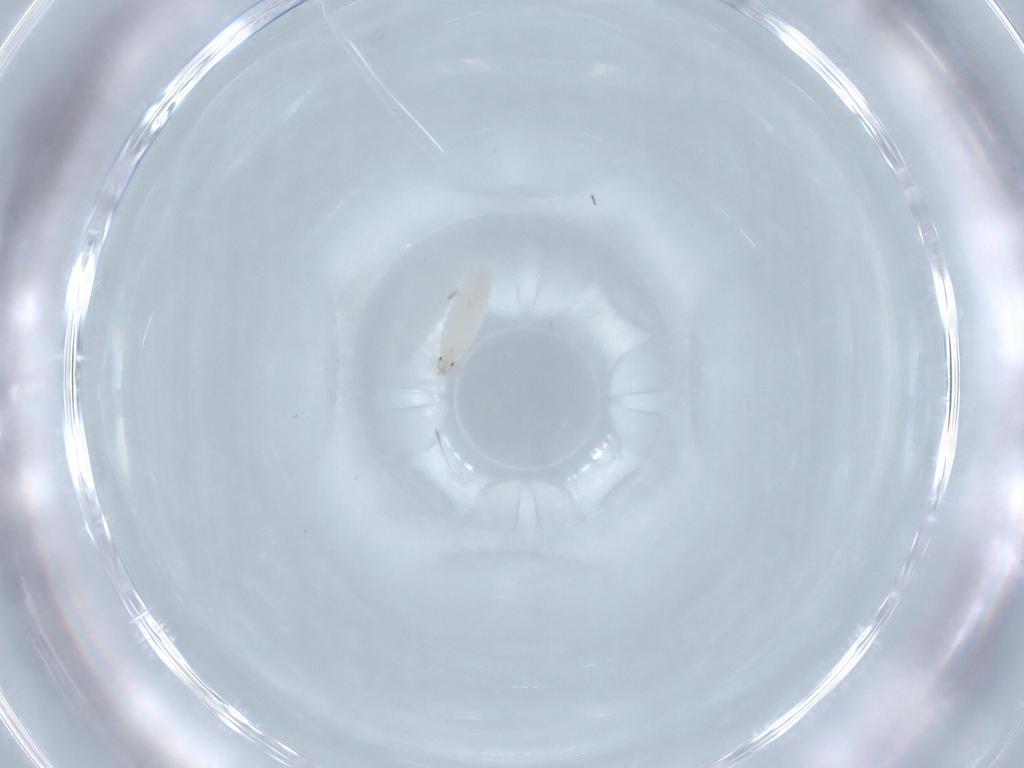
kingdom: Animalia
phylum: Arthropoda
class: Insecta
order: Diptera
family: Keroplatidae
